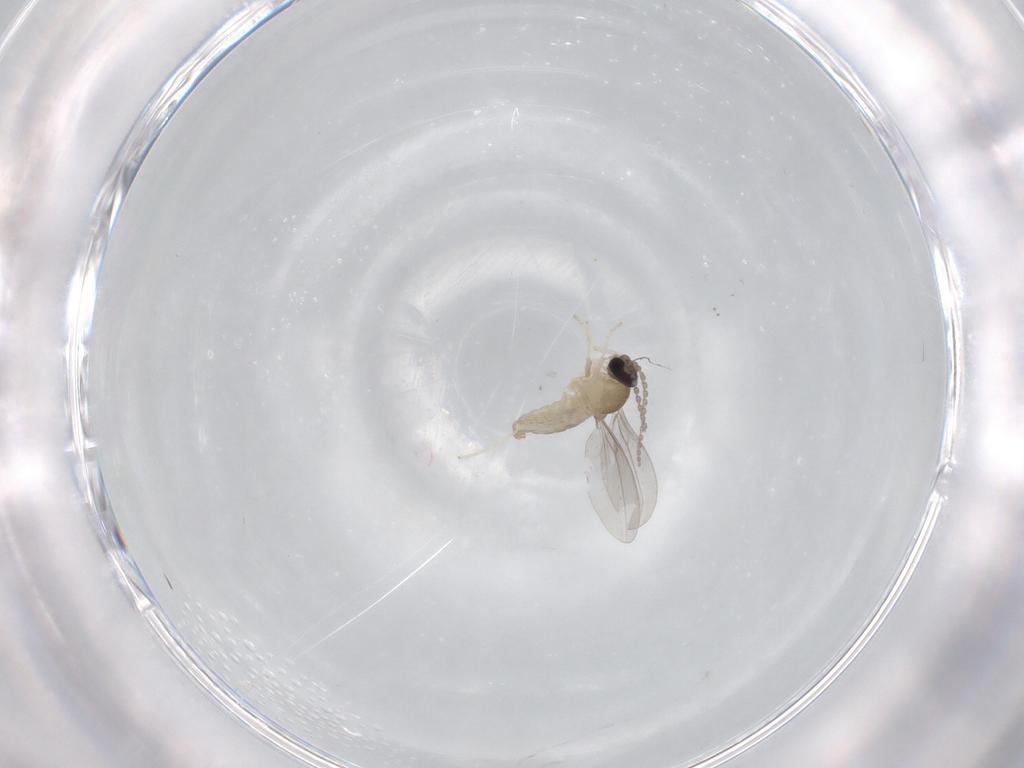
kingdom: Animalia
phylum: Arthropoda
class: Insecta
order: Diptera
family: Cecidomyiidae
